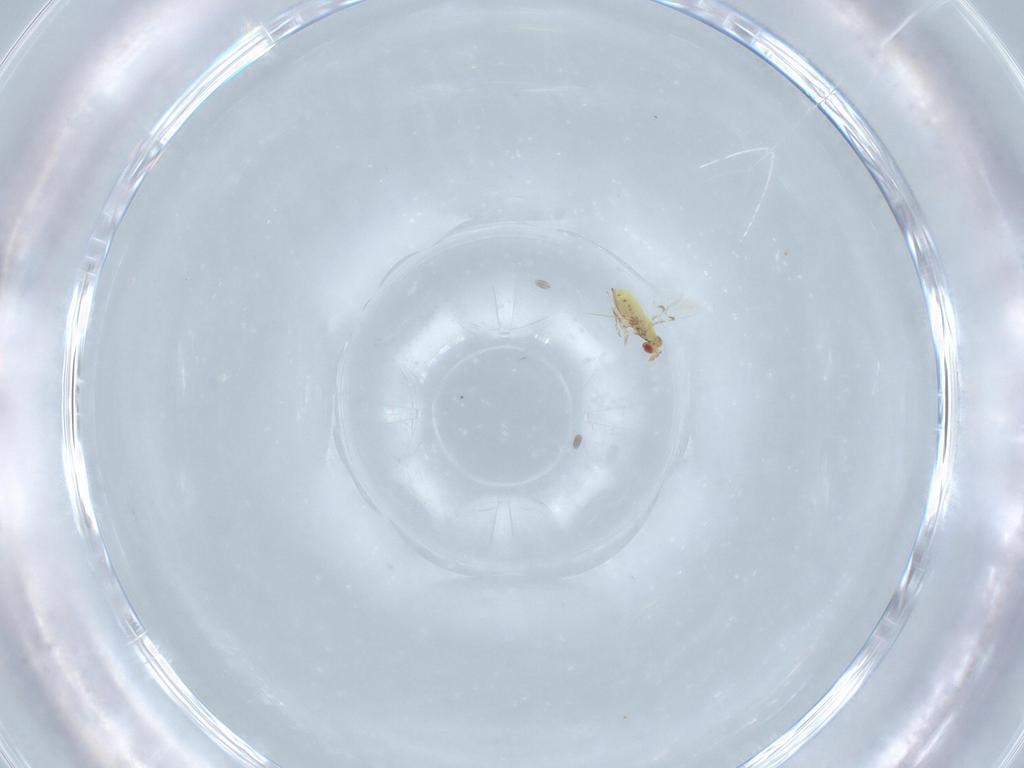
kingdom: Animalia
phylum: Arthropoda
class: Insecta
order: Hymenoptera
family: Trichogrammatidae
